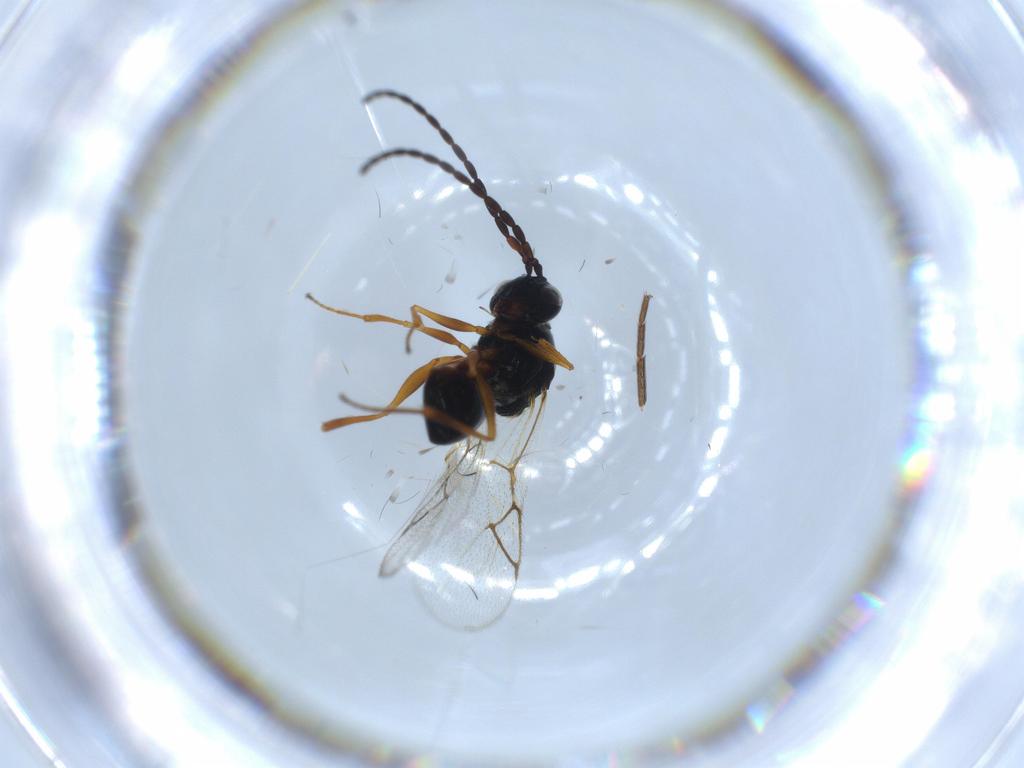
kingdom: Animalia
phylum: Arthropoda
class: Insecta
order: Hymenoptera
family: Figitidae
